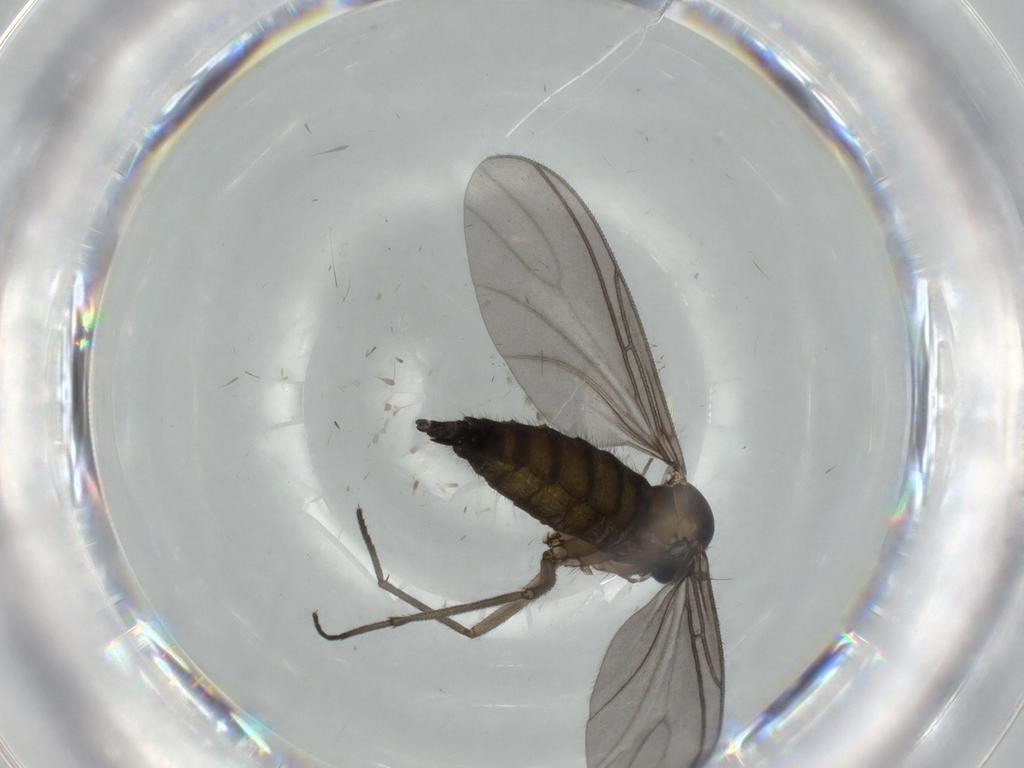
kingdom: Animalia
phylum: Arthropoda
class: Insecta
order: Diptera
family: Sciaridae
